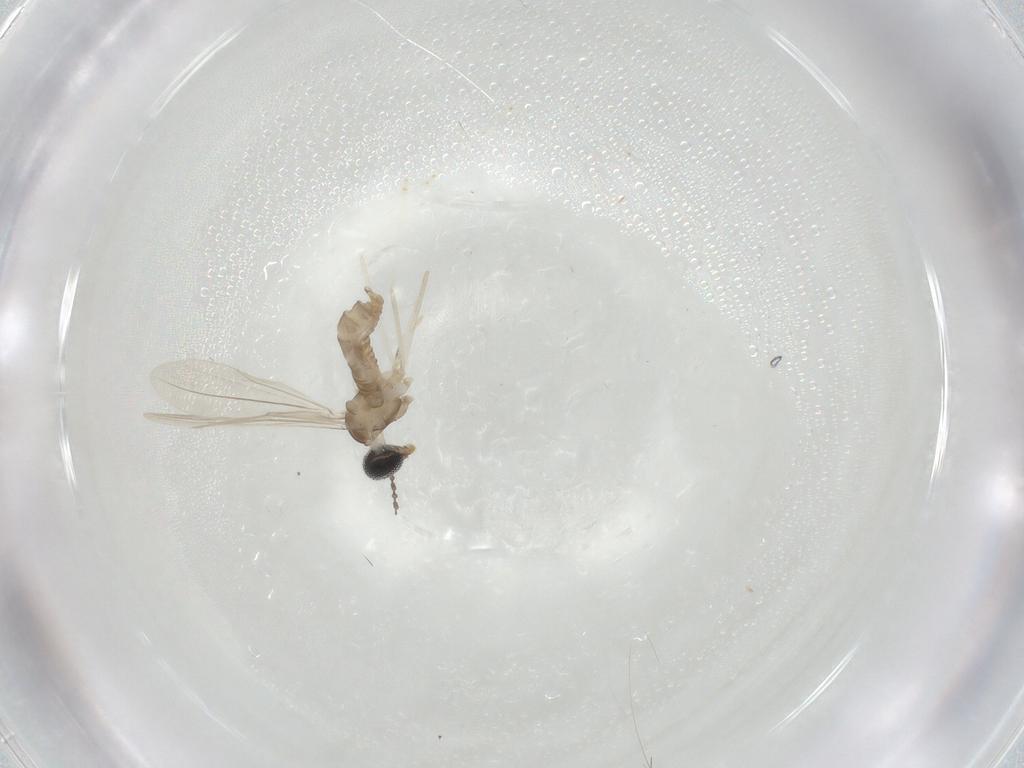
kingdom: Animalia
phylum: Arthropoda
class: Insecta
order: Diptera
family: Cecidomyiidae
